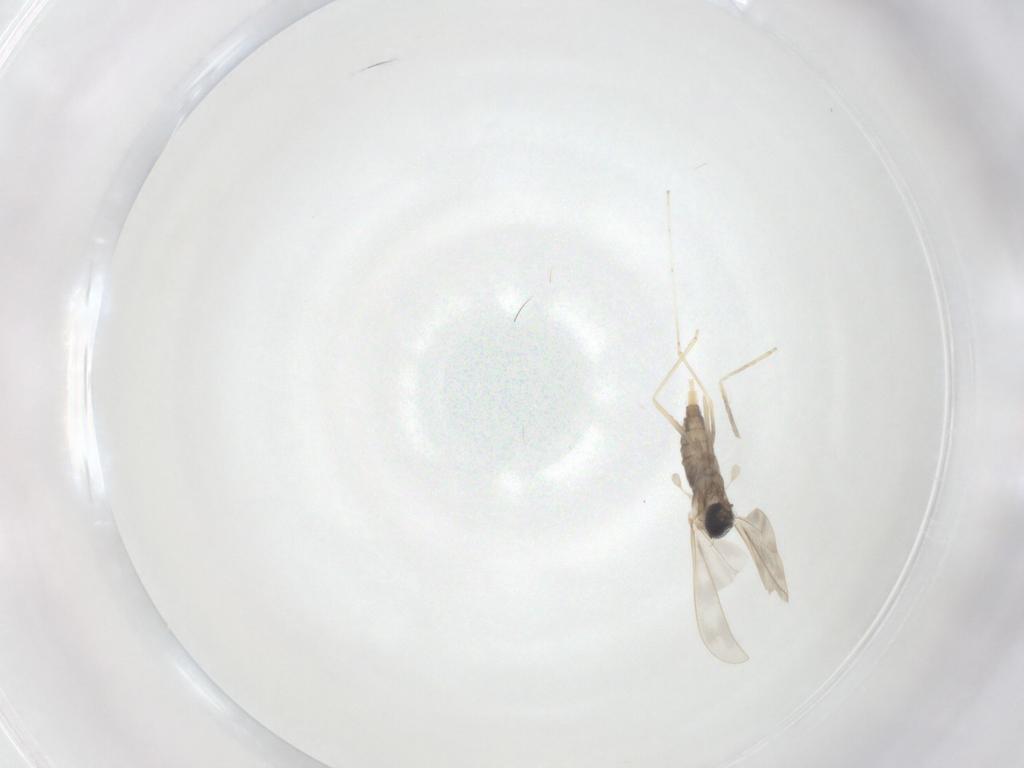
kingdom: Animalia
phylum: Arthropoda
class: Insecta
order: Diptera
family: Cecidomyiidae
